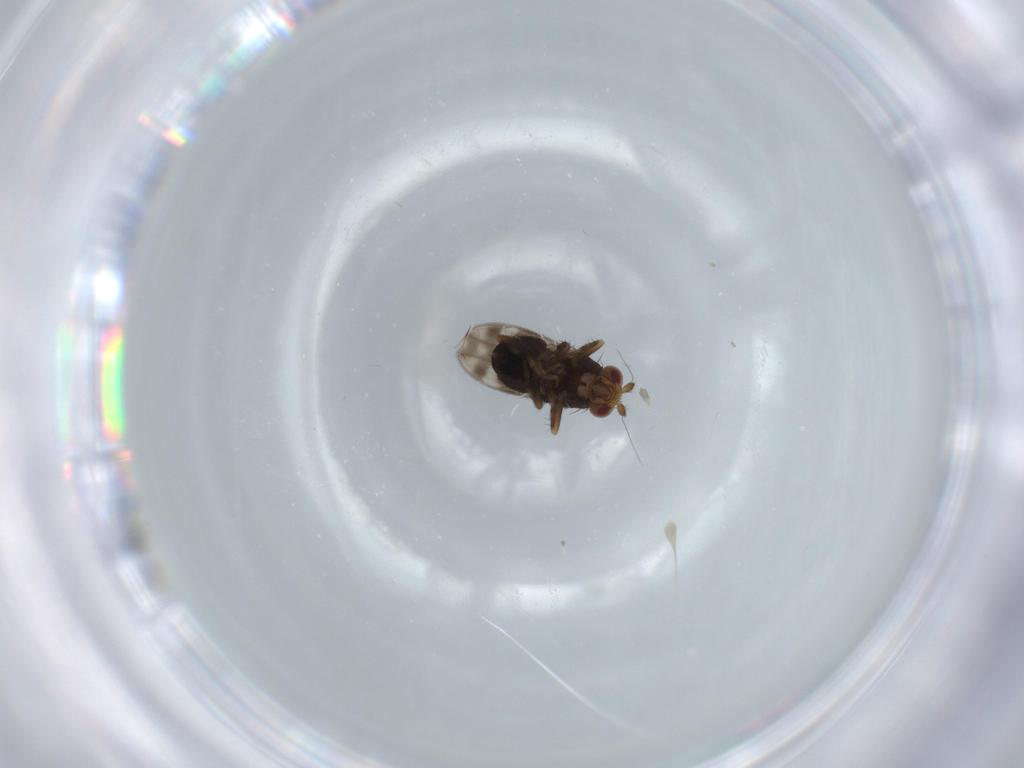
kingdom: Animalia
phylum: Arthropoda
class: Insecta
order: Diptera
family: Sphaeroceridae
